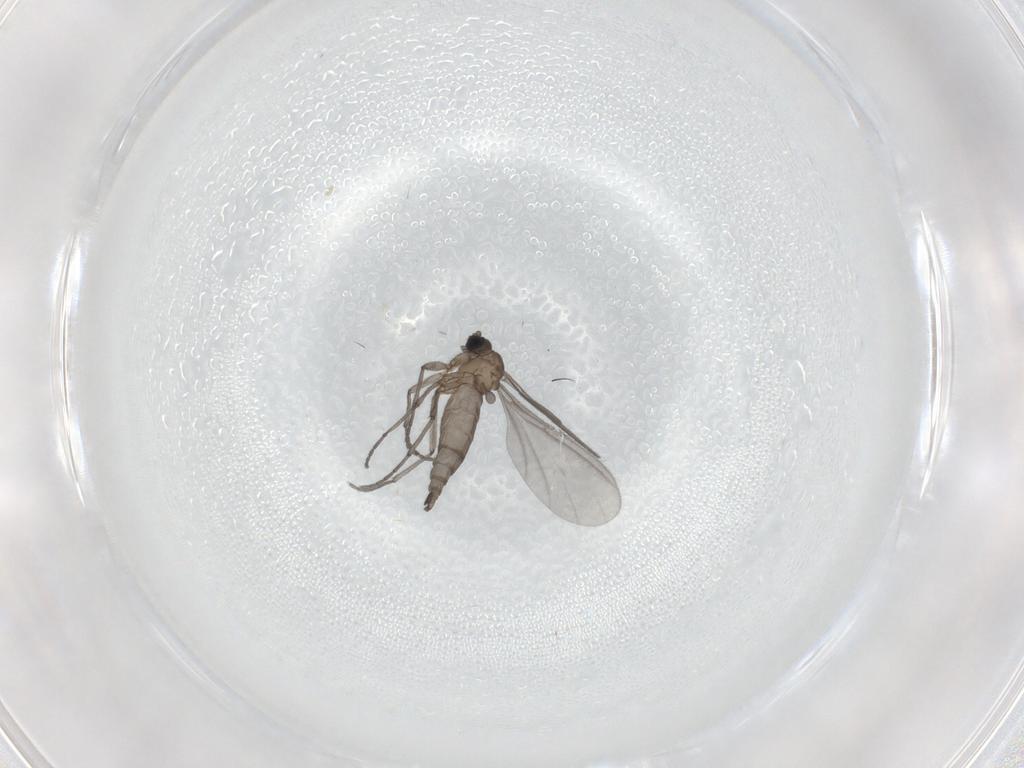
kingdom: Animalia
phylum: Arthropoda
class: Insecta
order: Diptera
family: Sciaridae
